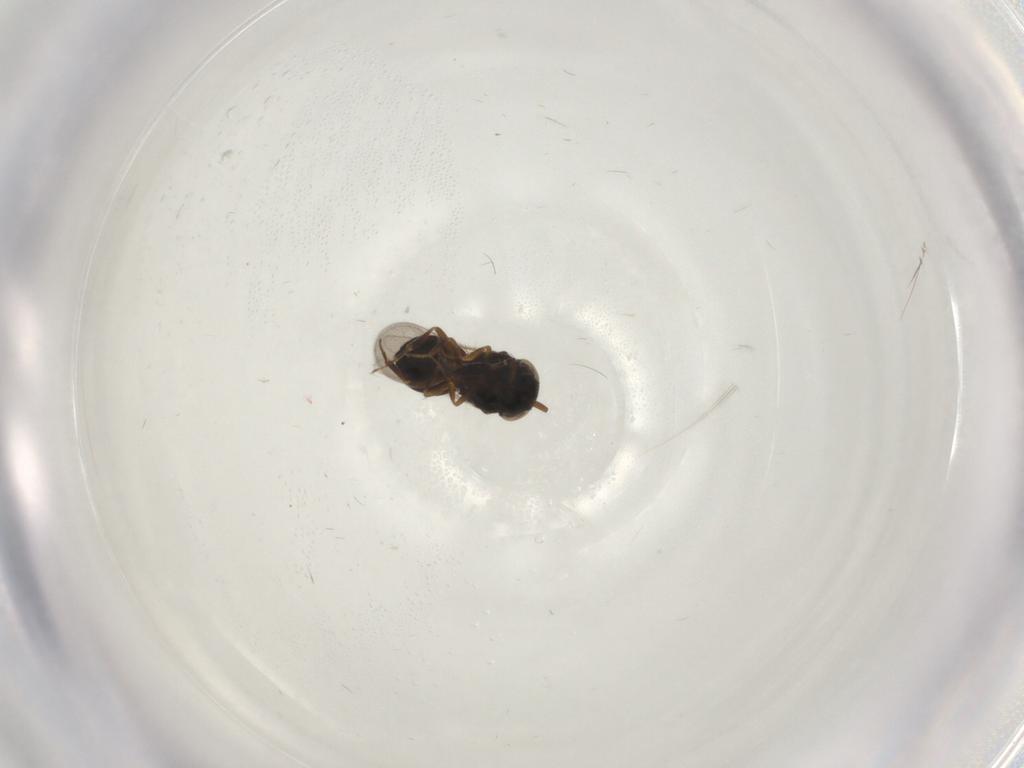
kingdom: Animalia
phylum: Arthropoda
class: Insecta
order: Hymenoptera
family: Scelionidae
